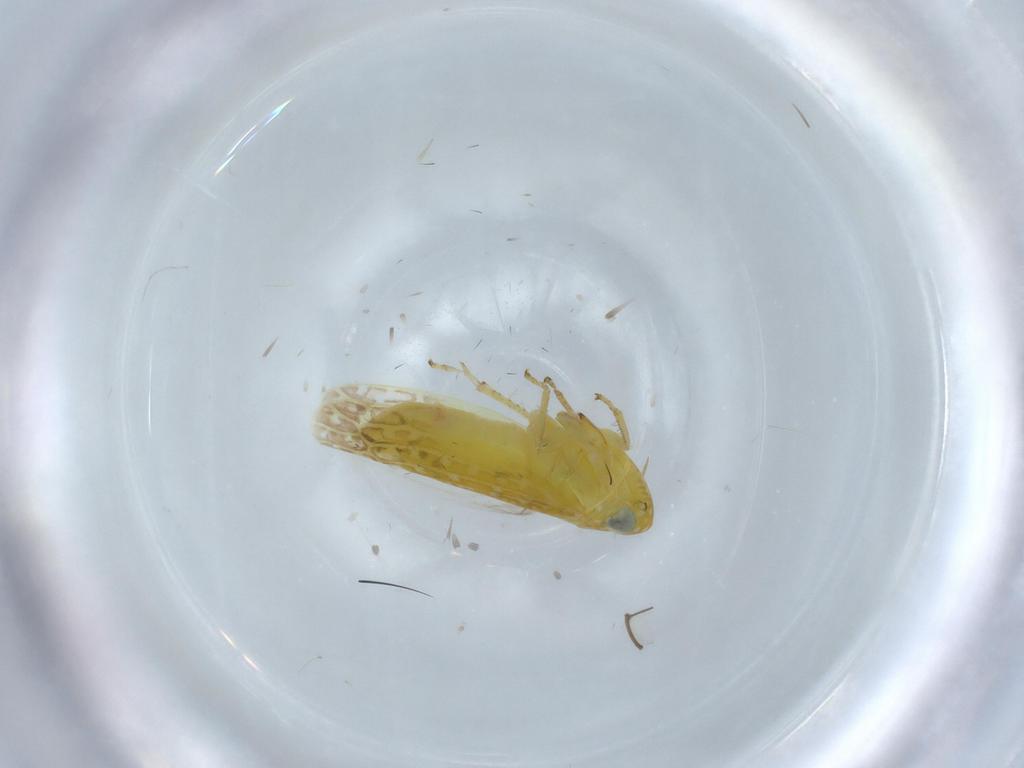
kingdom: Animalia
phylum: Arthropoda
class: Insecta
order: Hemiptera
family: Cicadellidae
